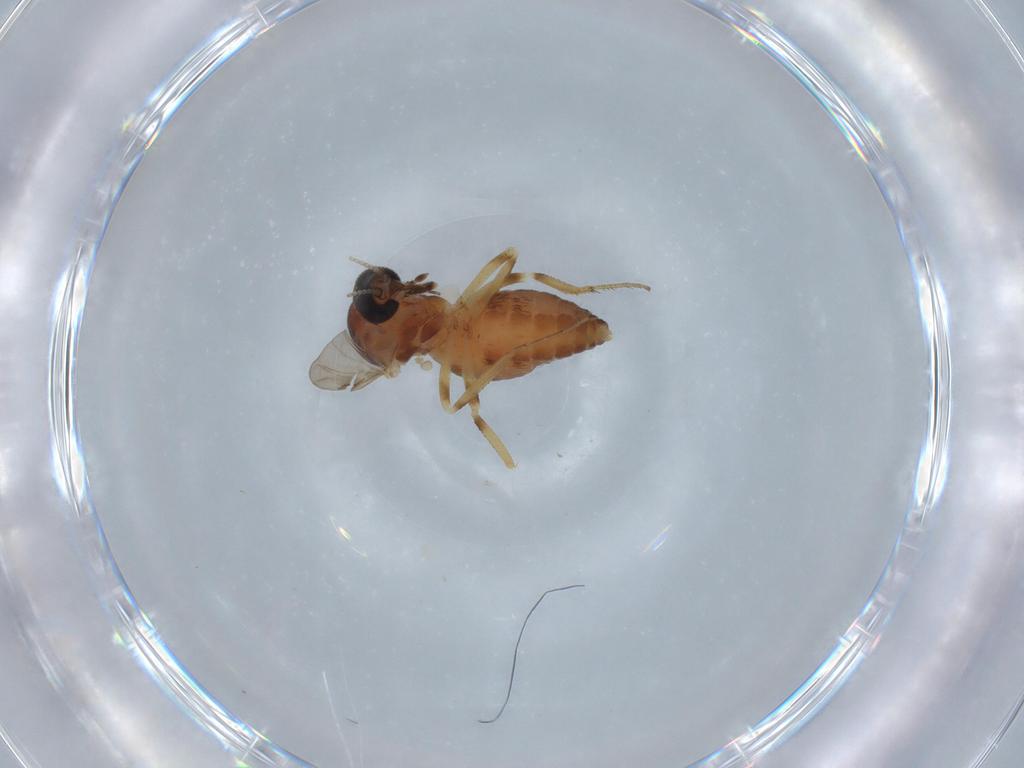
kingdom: Animalia
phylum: Arthropoda
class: Insecta
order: Diptera
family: Ceratopogonidae
